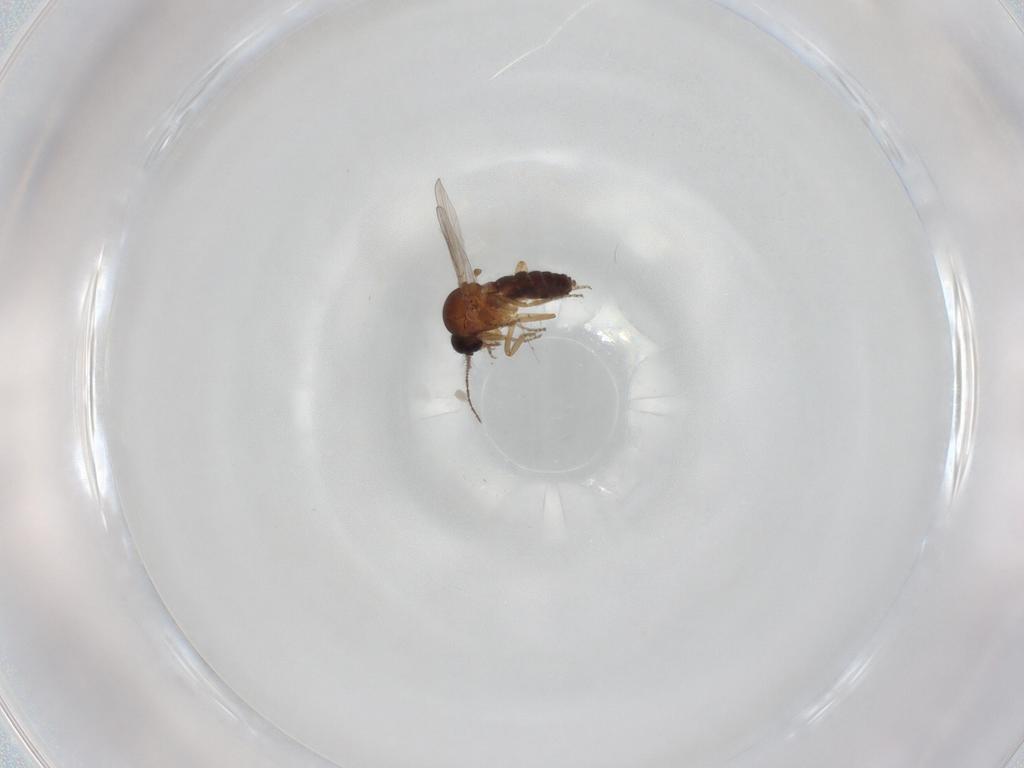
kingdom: Animalia
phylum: Arthropoda
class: Insecta
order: Diptera
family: Ceratopogonidae
